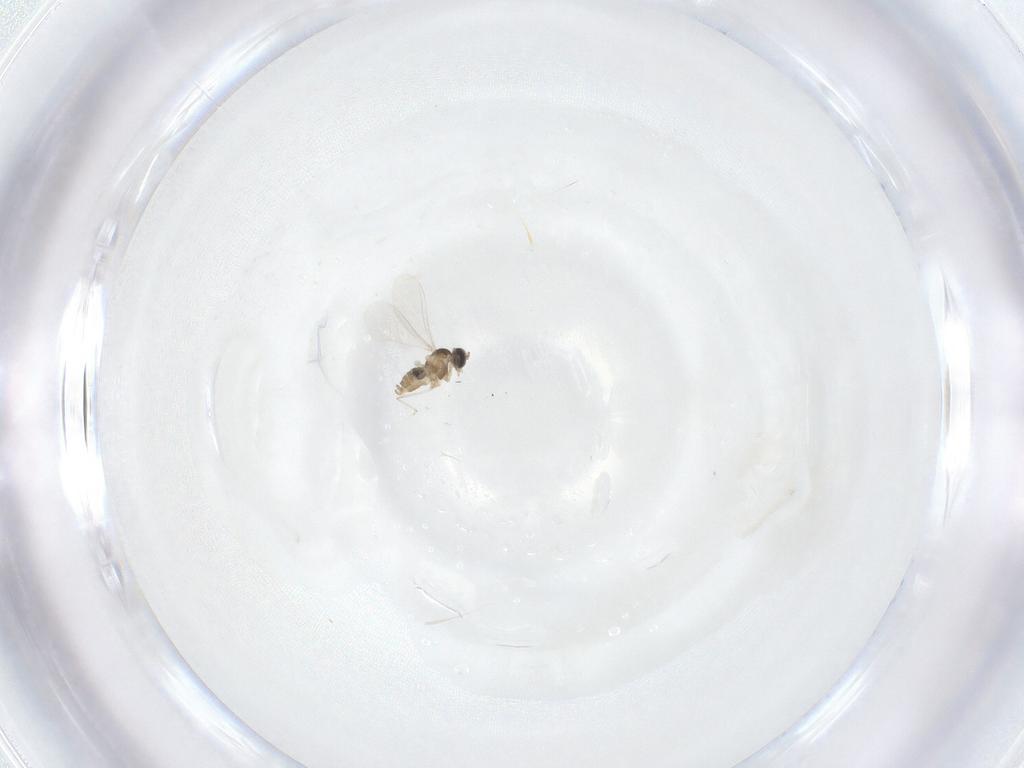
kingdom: Animalia
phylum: Arthropoda
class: Insecta
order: Diptera
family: Cecidomyiidae
